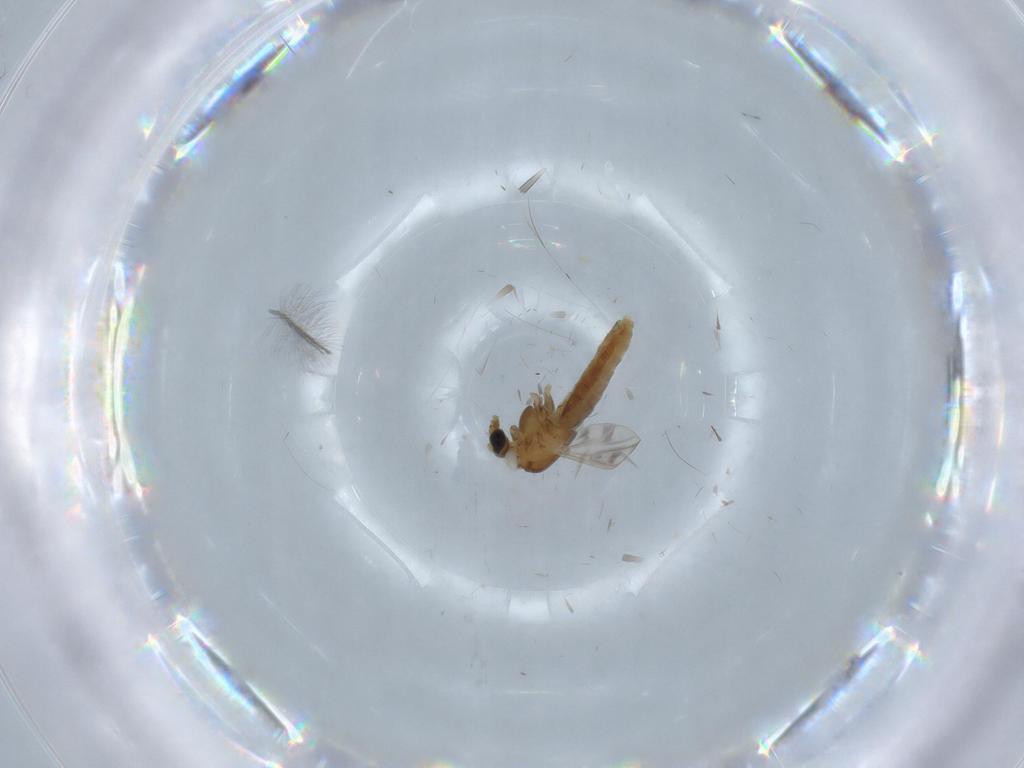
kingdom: Animalia
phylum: Arthropoda
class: Insecta
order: Diptera
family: Chironomidae
